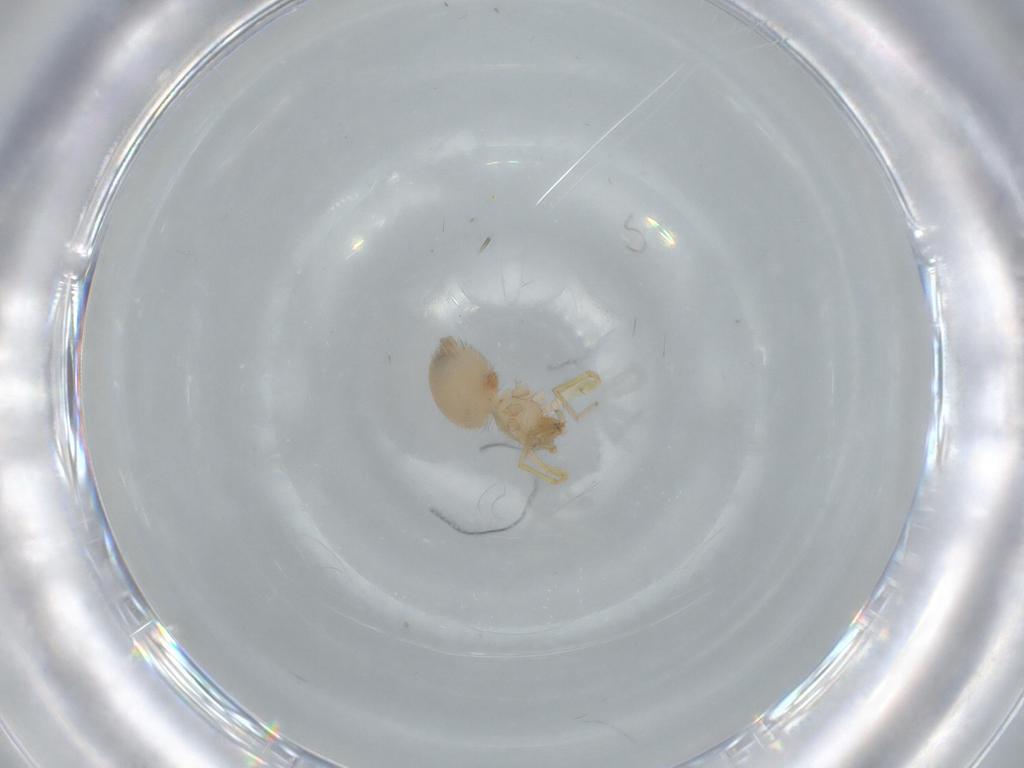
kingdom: Animalia
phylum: Arthropoda
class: Arachnida
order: Araneae
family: Oonopidae
